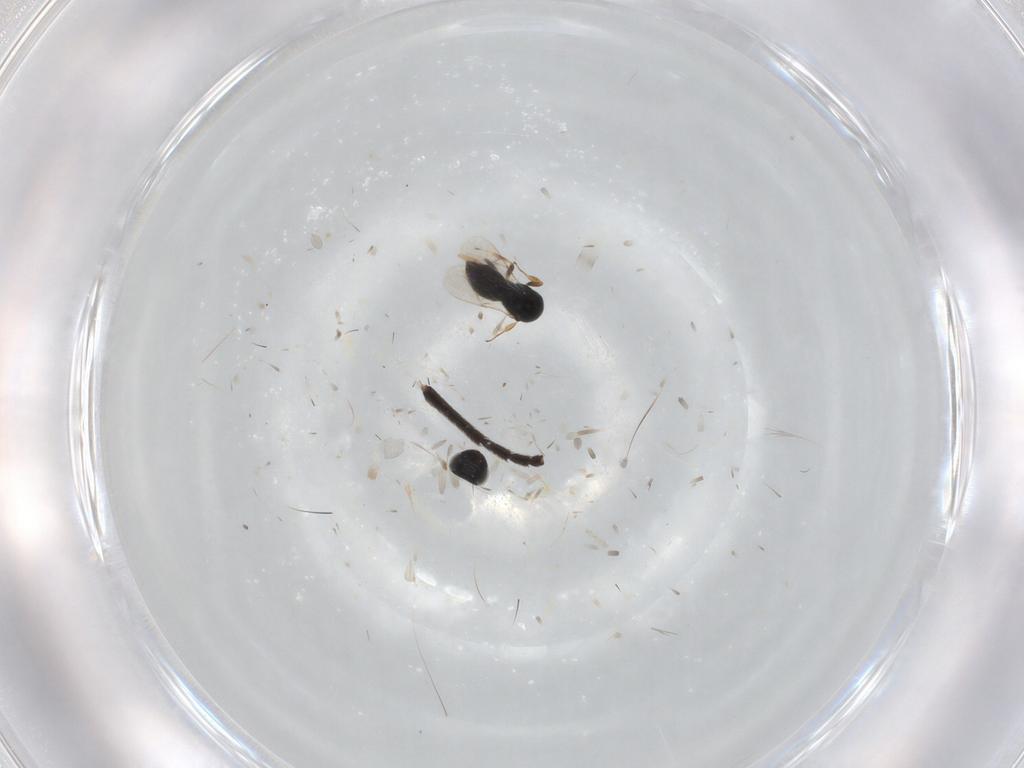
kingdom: Animalia
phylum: Arthropoda
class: Insecta
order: Hymenoptera
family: Scelionidae
